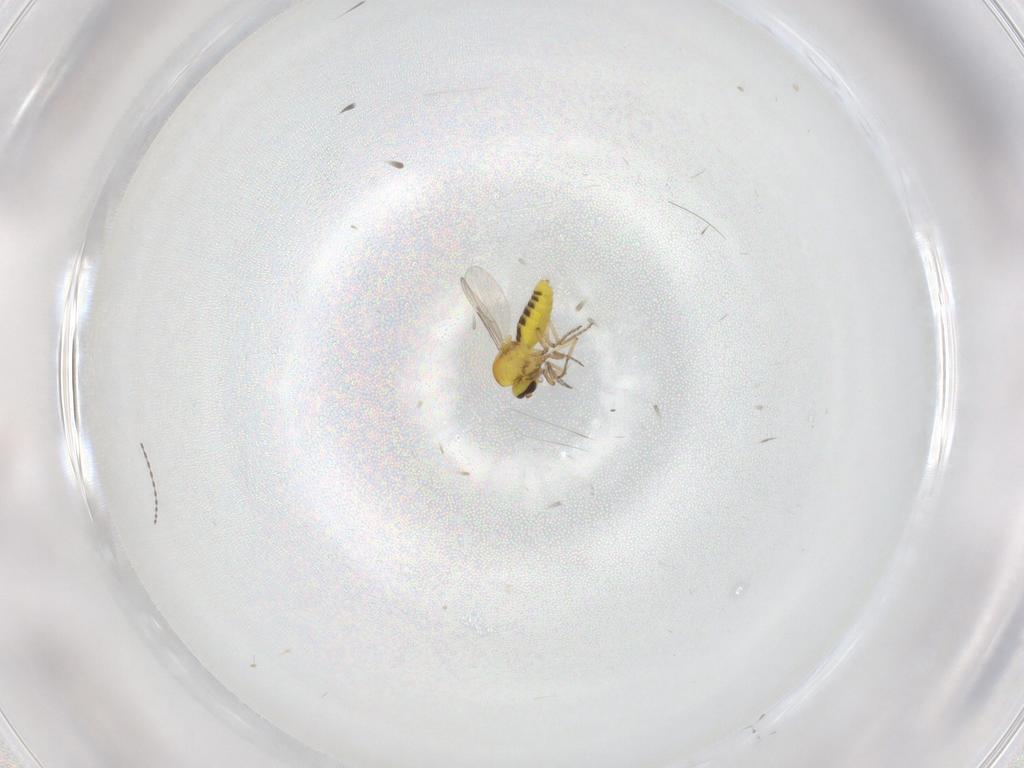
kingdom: Animalia
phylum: Arthropoda
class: Insecta
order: Diptera
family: Ceratopogonidae
